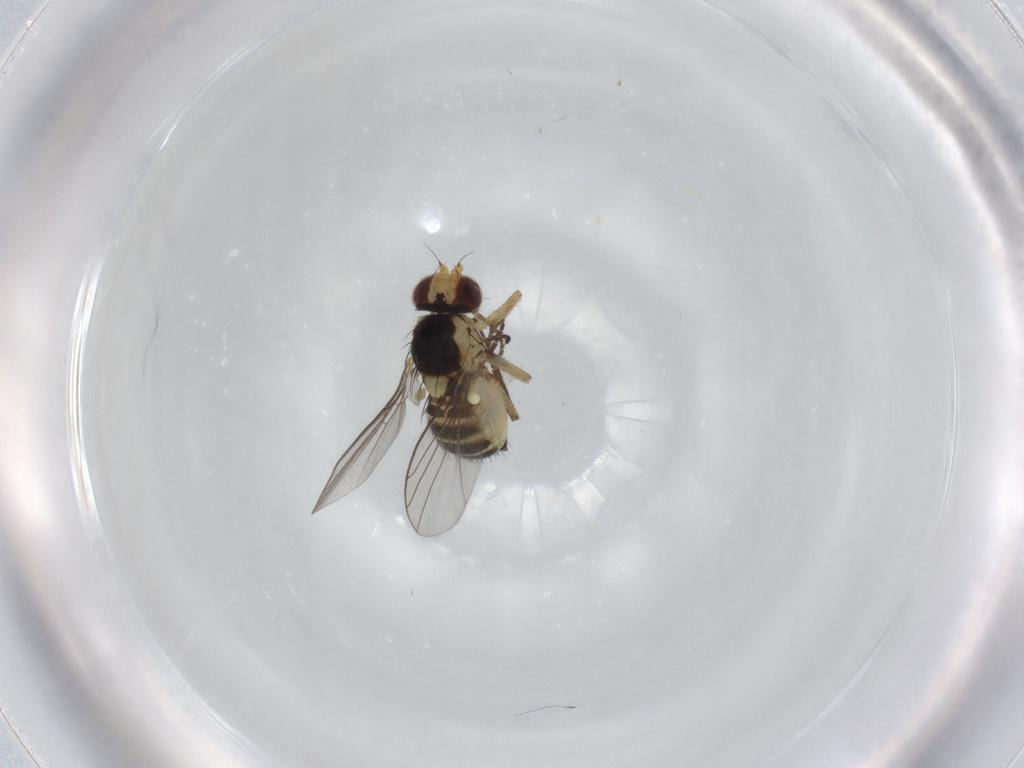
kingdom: Animalia
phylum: Arthropoda
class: Insecta
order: Diptera
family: Agromyzidae
